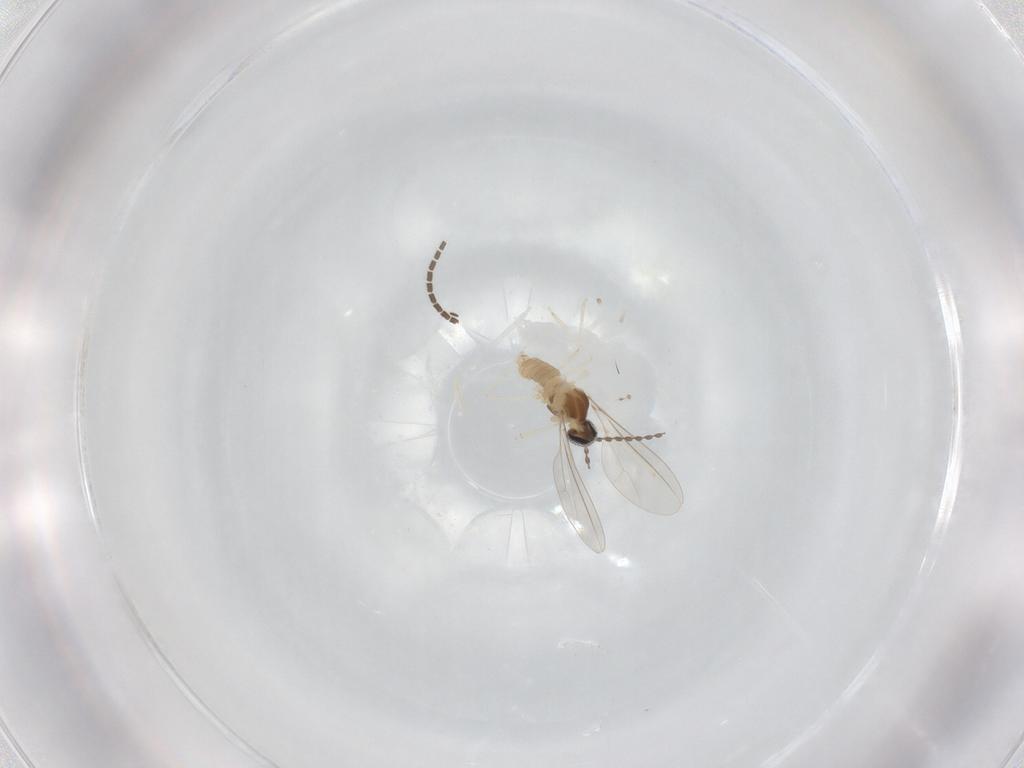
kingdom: Animalia
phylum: Arthropoda
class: Insecta
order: Diptera
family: Cecidomyiidae
